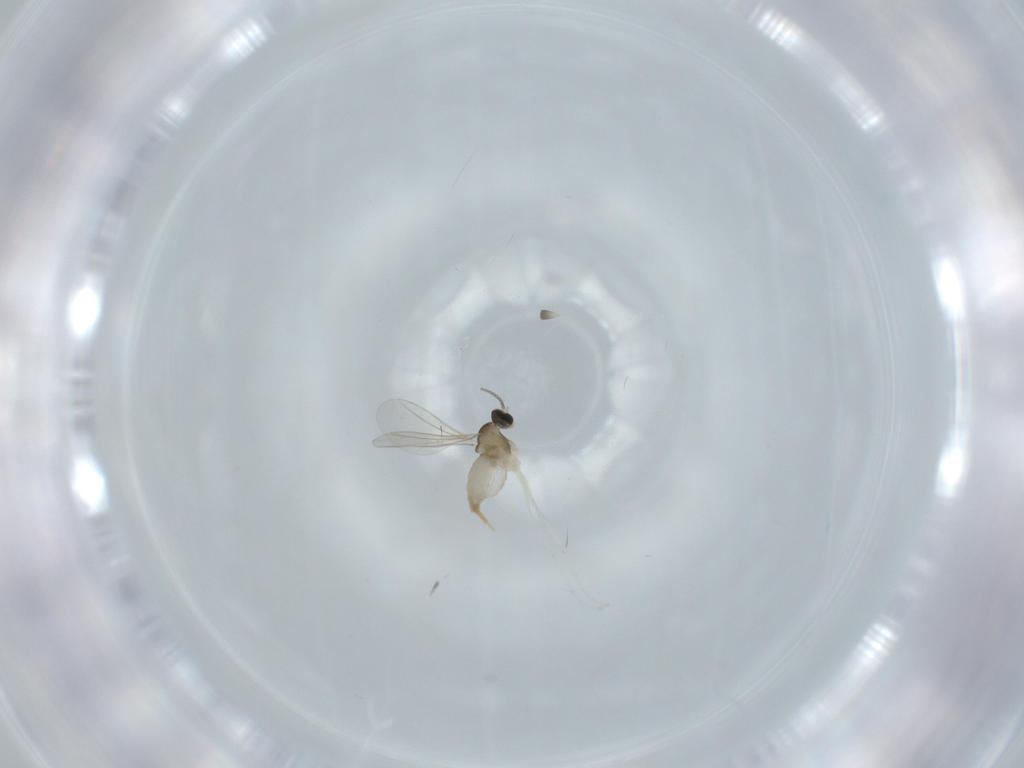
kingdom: Animalia
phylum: Arthropoda
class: Insecta
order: Diptera
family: Cecidomyiidae
